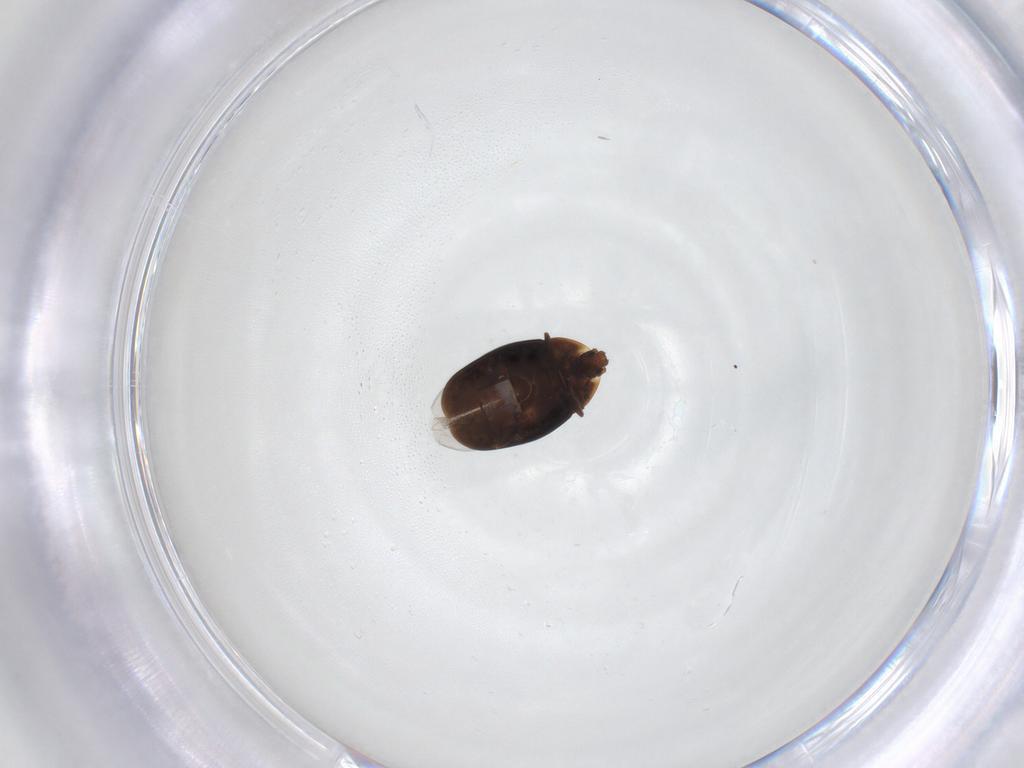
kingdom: Animalia
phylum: Arthropoda
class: Insecta
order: Coleoptera
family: Corylophidae
